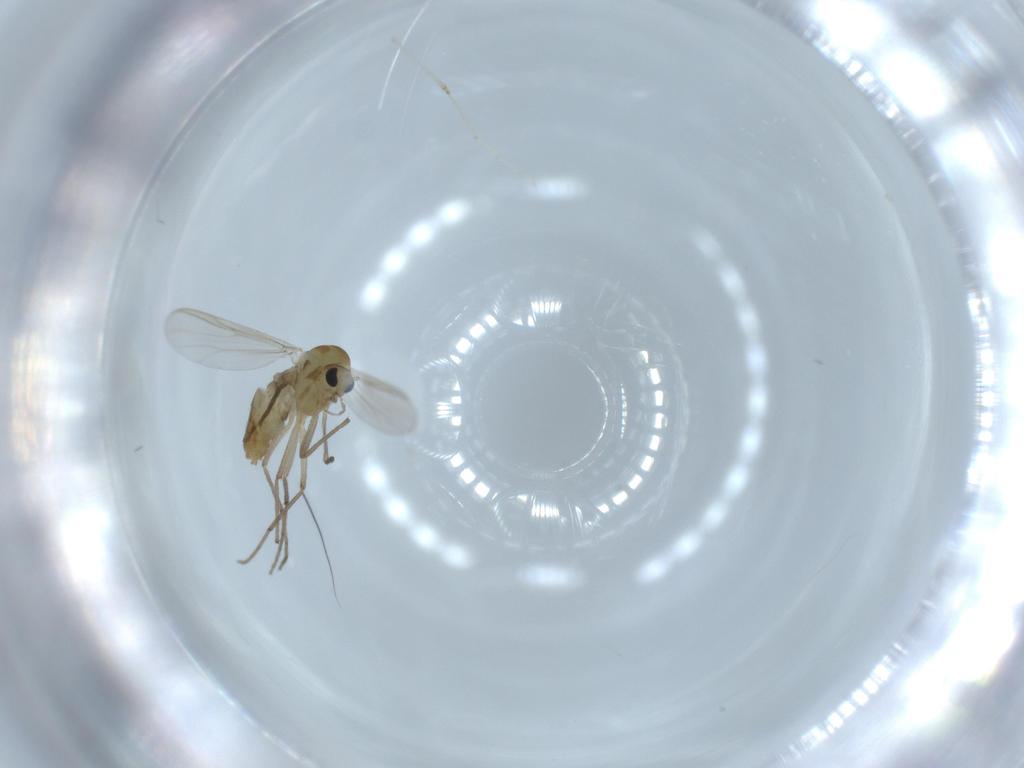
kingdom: Animalia
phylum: Arthropoda
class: Insecta
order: Diptera
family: Chironomidae
